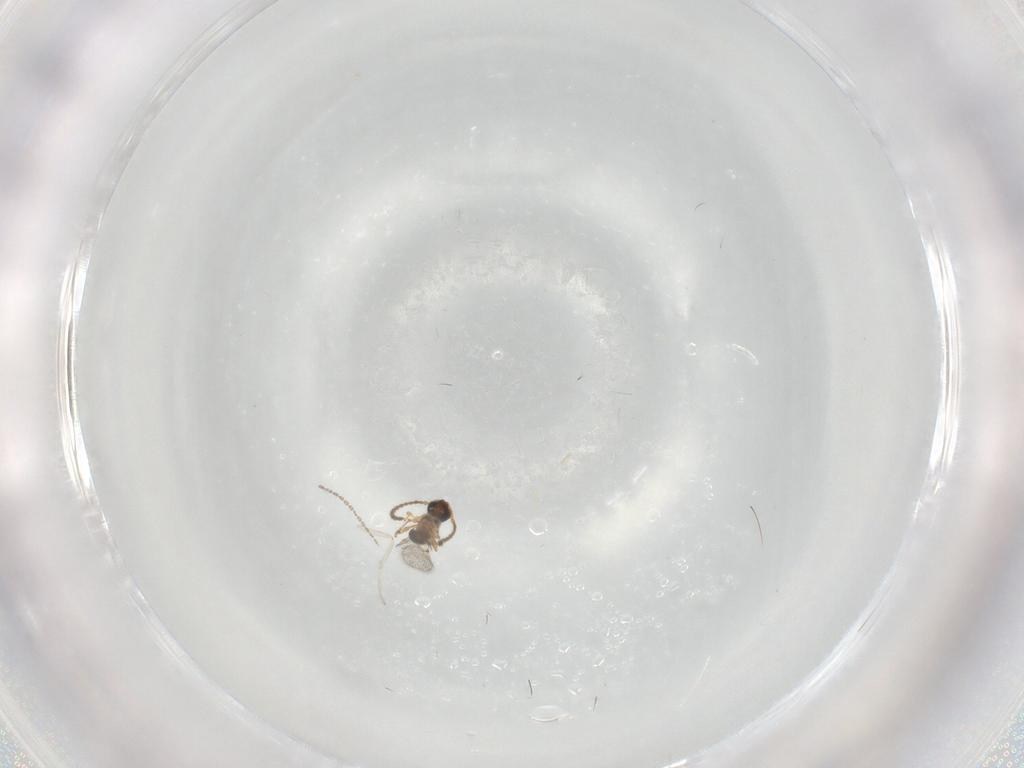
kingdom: Animalia
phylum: Arthropoda
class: Insecta
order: Hymenoptera
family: Diapriidae
